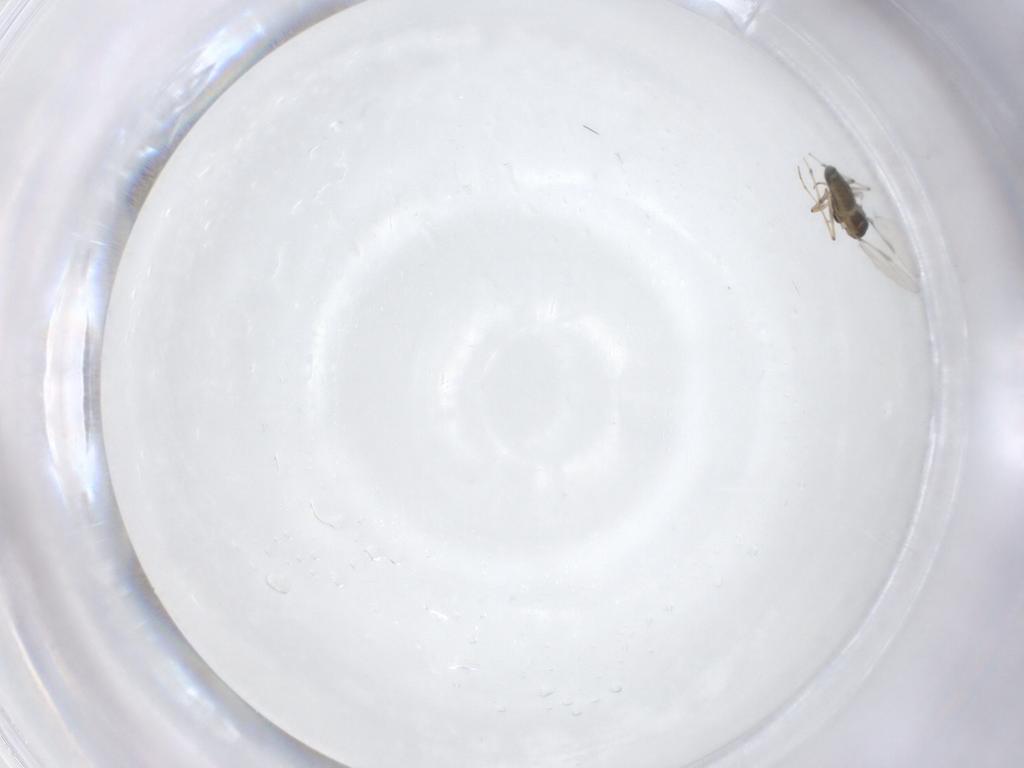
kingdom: Animalia
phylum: Arthropoda
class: Insecta
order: Diptera
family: Chironomidae
